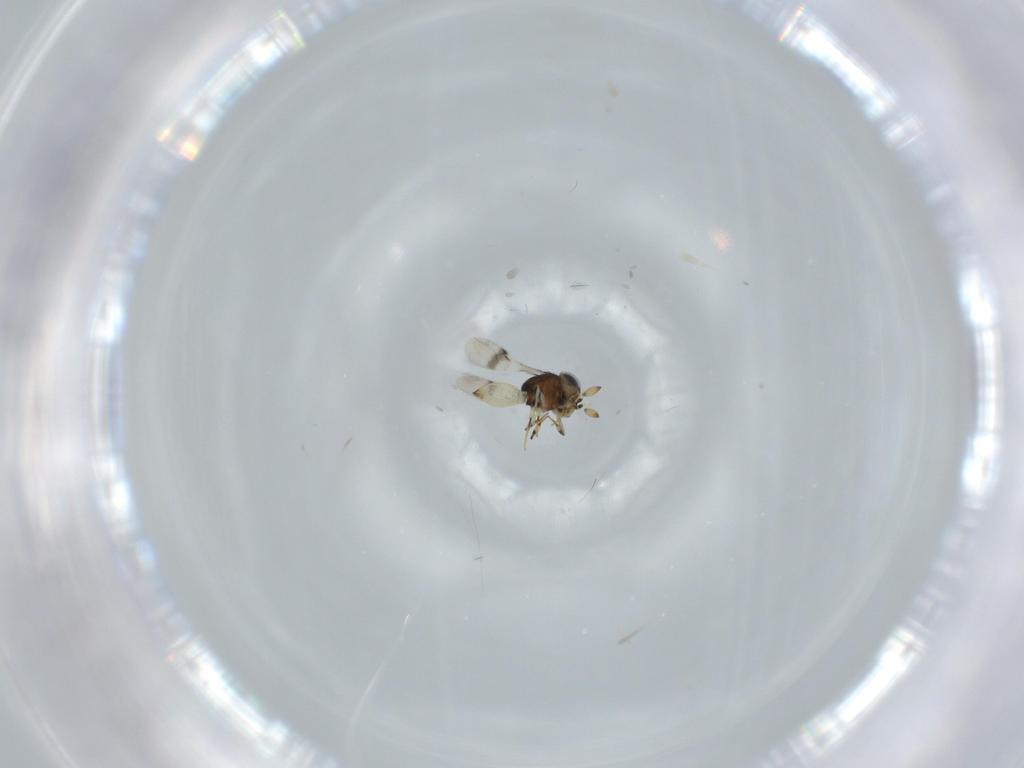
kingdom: Animalia
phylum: Arthropoda
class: Insecta
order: Hymenoptera
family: Scelionidae
